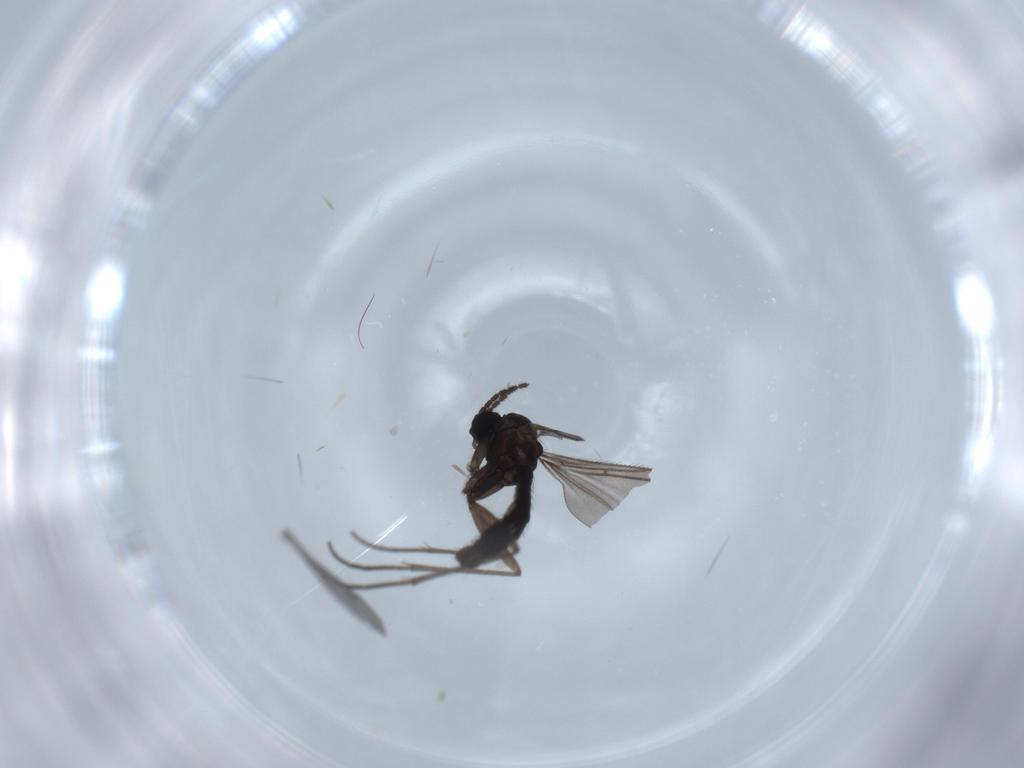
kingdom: Animalia
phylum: Arthropoda
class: Insecta
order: Diptera
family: Sciaridae
